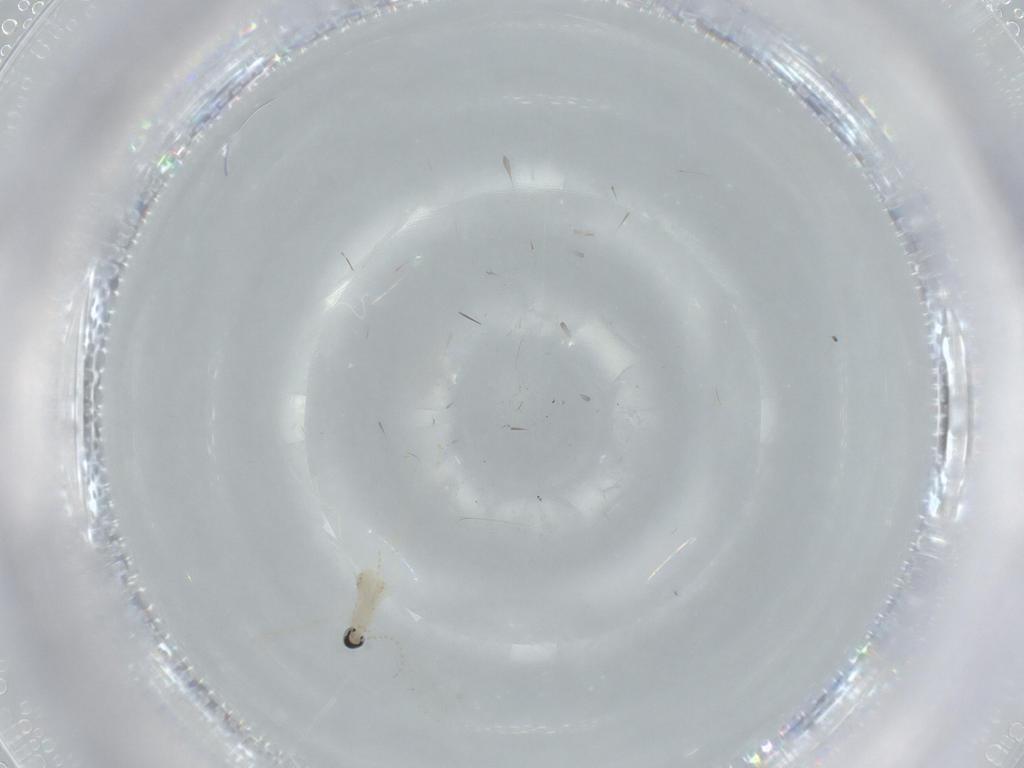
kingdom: Animalia
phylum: Arthropoda
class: Insecta
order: Diptera
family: Cecidomyiidae
